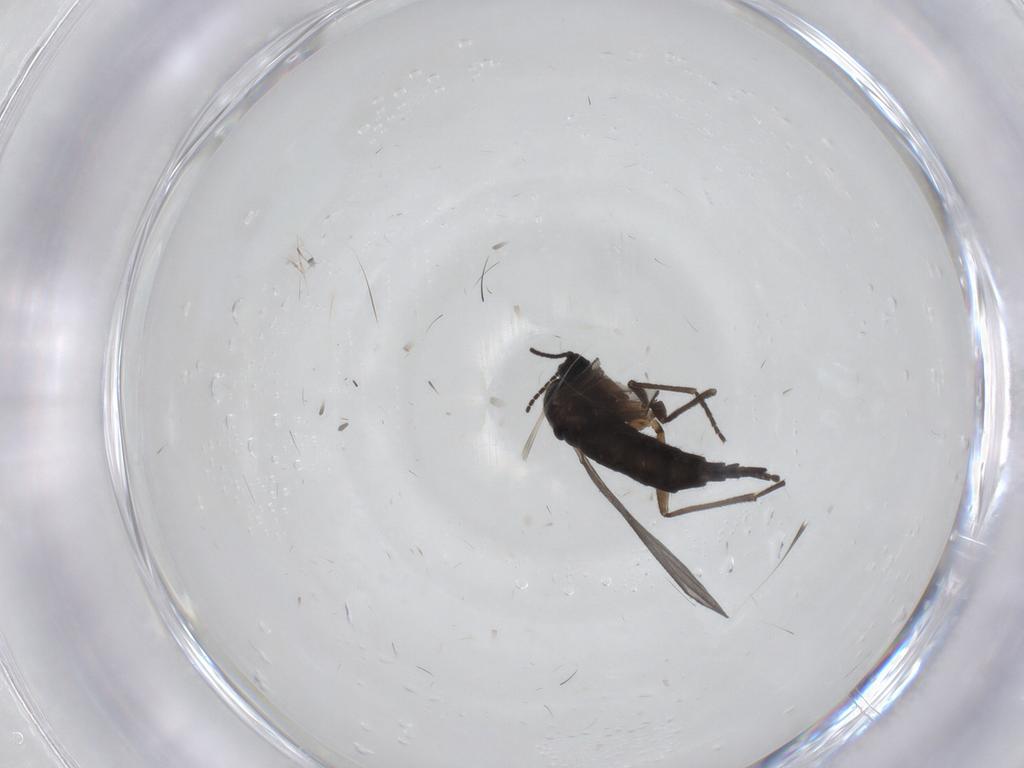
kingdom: Animalia
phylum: Arthropoda
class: Insecta
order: Diptera
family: Sciaridae
